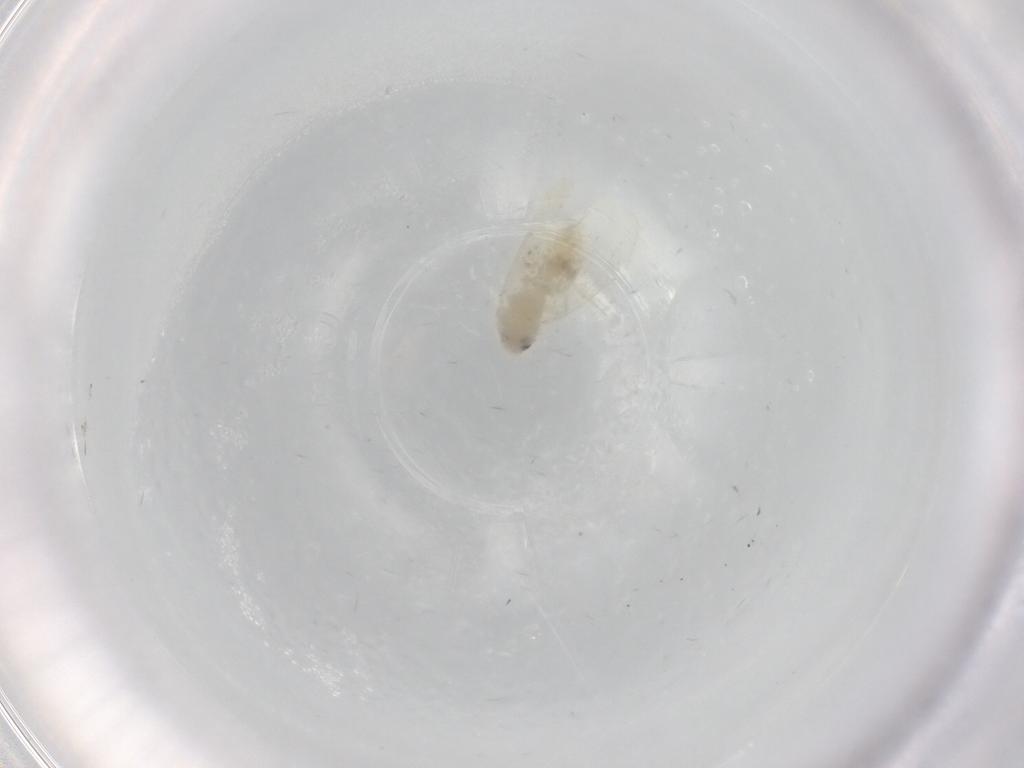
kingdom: Animalia
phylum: Arthropoda
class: Insecta
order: Hemiptera
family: Aleyrodidae
